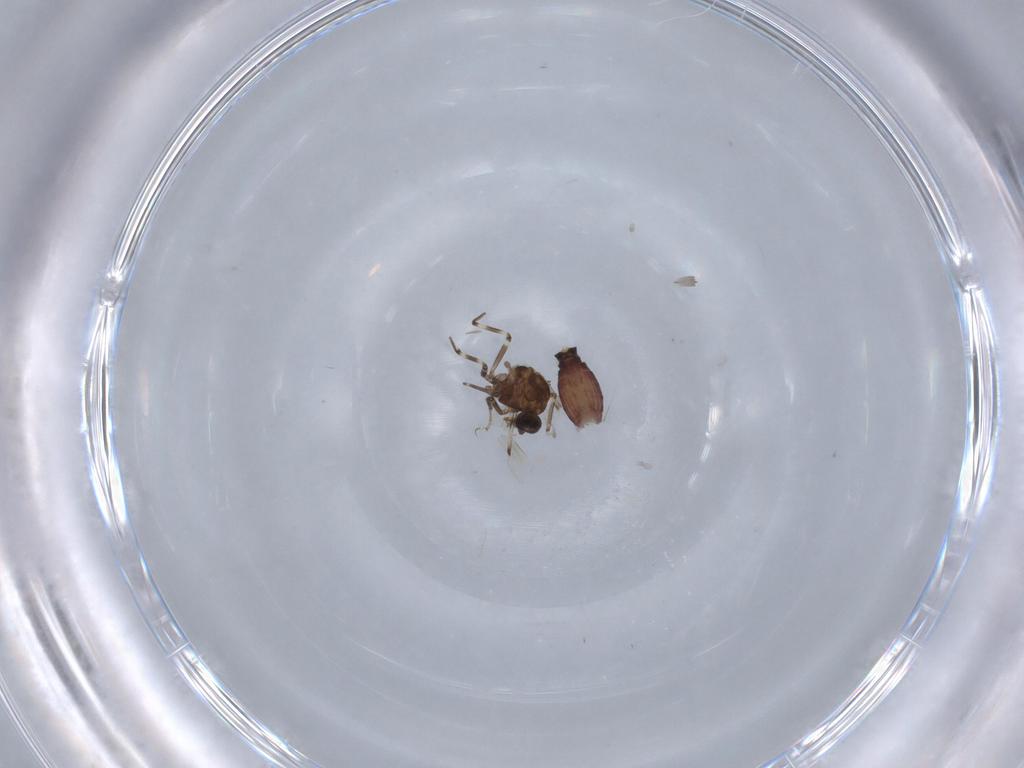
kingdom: Animalia
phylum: Arthropoda
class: Insecta
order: Diptera
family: Ceratopogonidae
